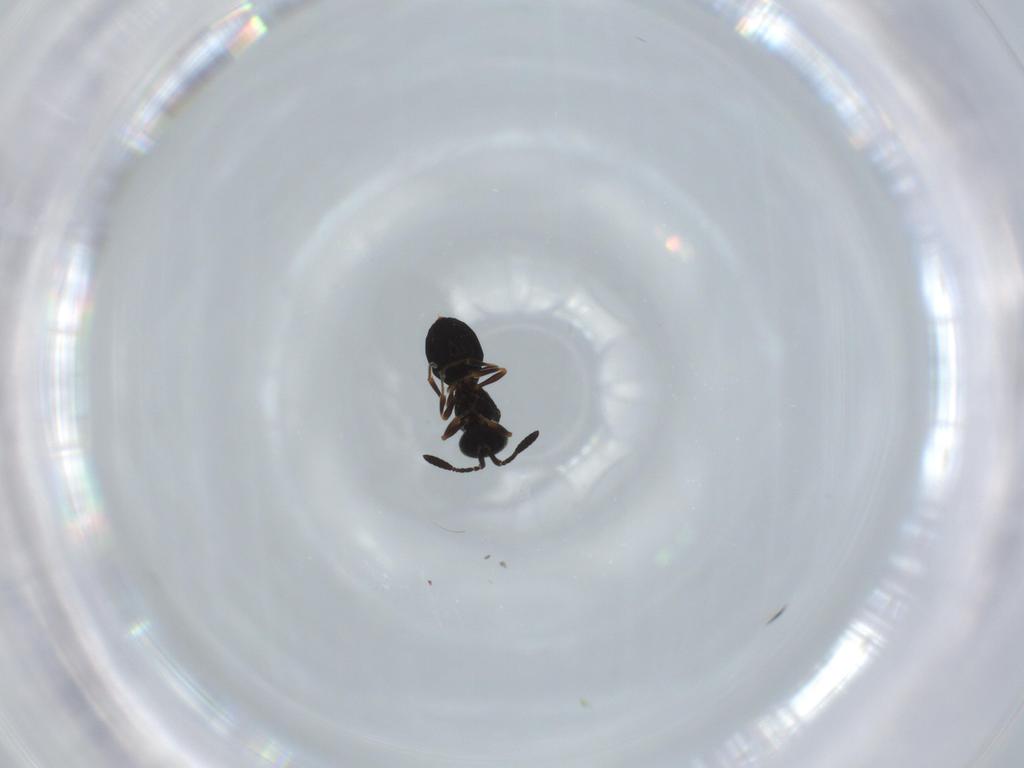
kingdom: Animalia
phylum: Arthropoda
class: Insecta
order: Hymenoptera
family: Scelionidae
